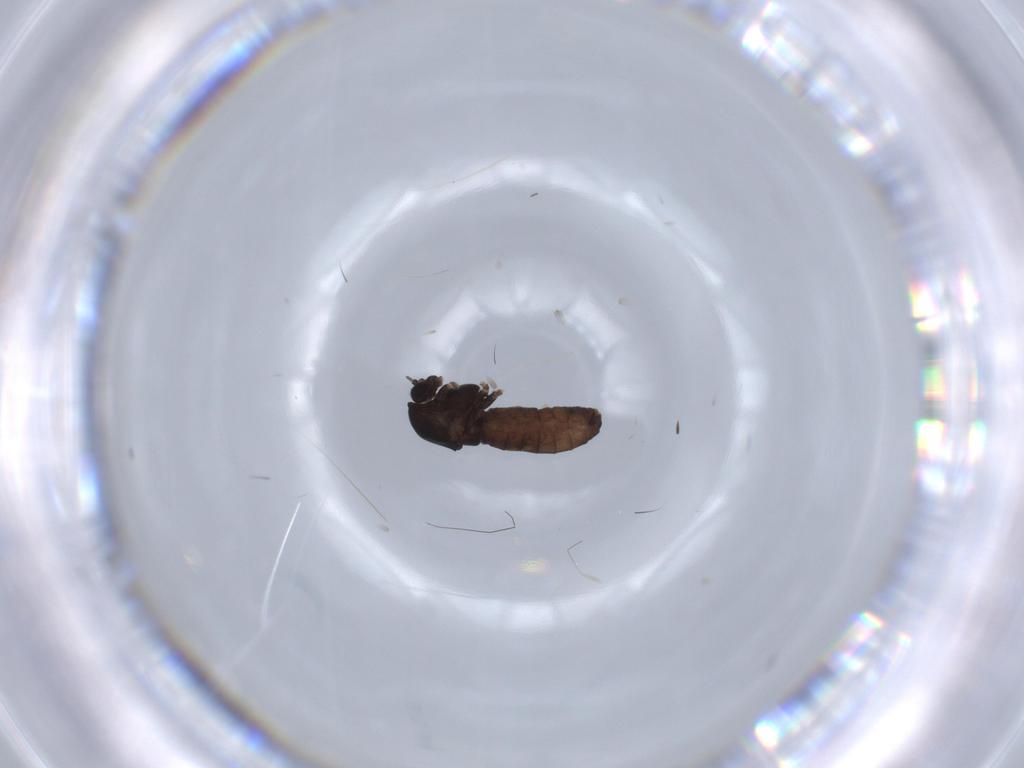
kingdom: Animalia
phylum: Arthropoda
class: Insecta
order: Diptera
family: Chironomidae
